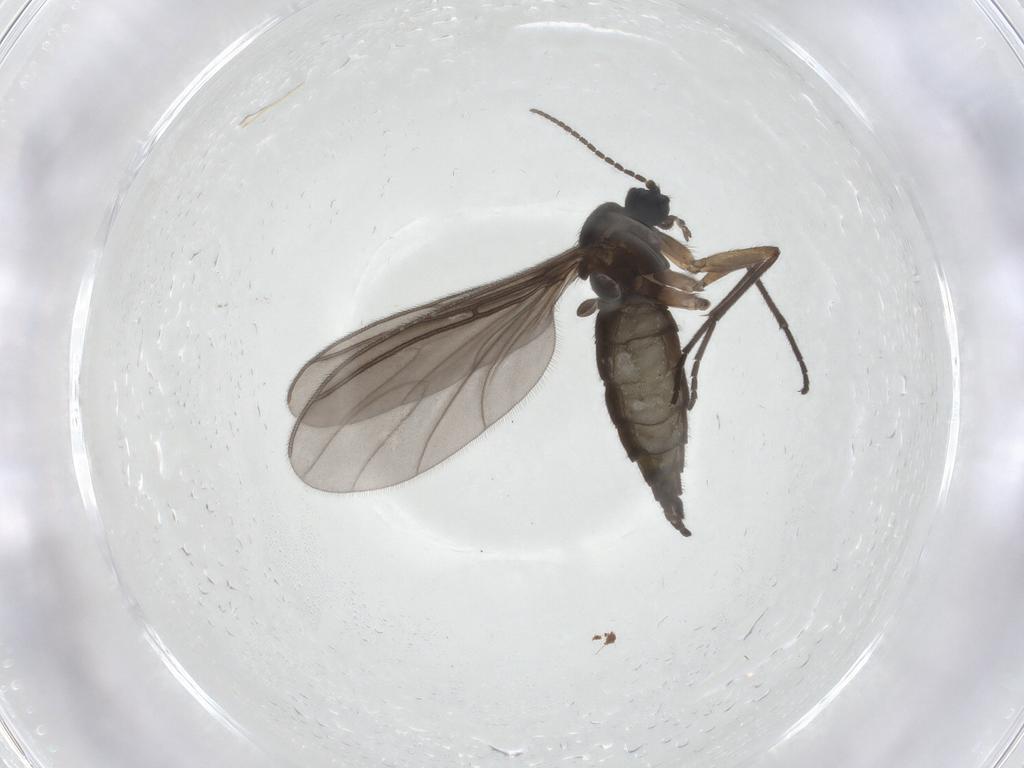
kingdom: Animalia
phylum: Arthropoda
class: Insecta
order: Diptera
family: Sciaridae
